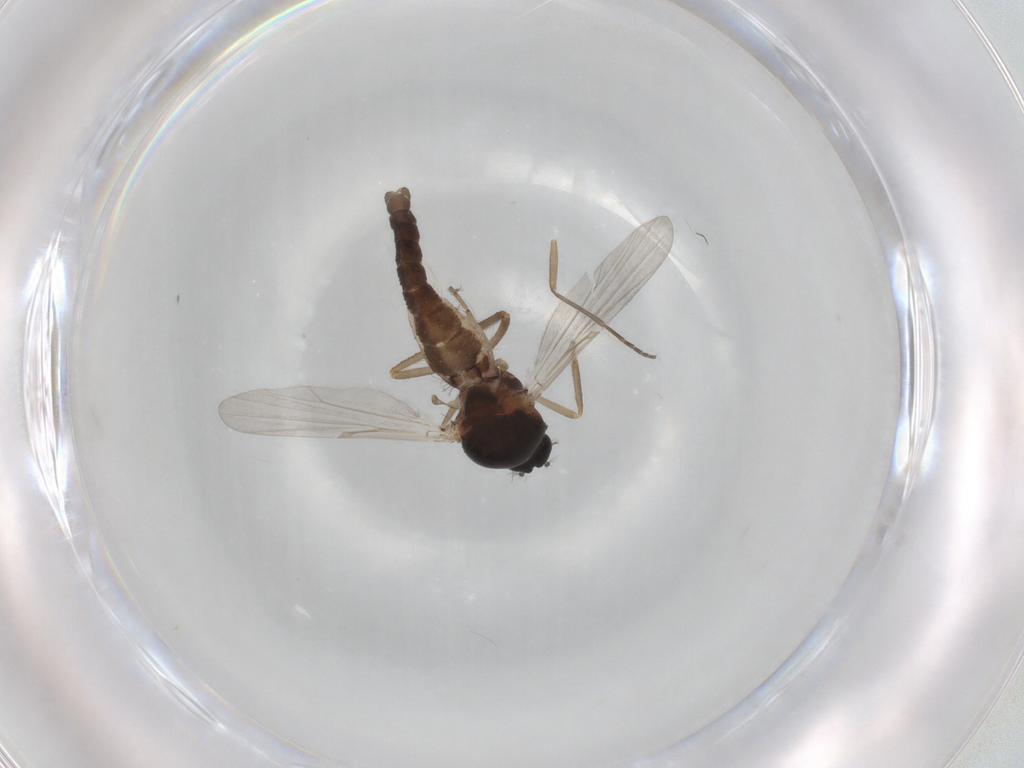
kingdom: Animalia
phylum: Arthropoda
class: Insecta
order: Diptera
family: Ceratopogonidae
